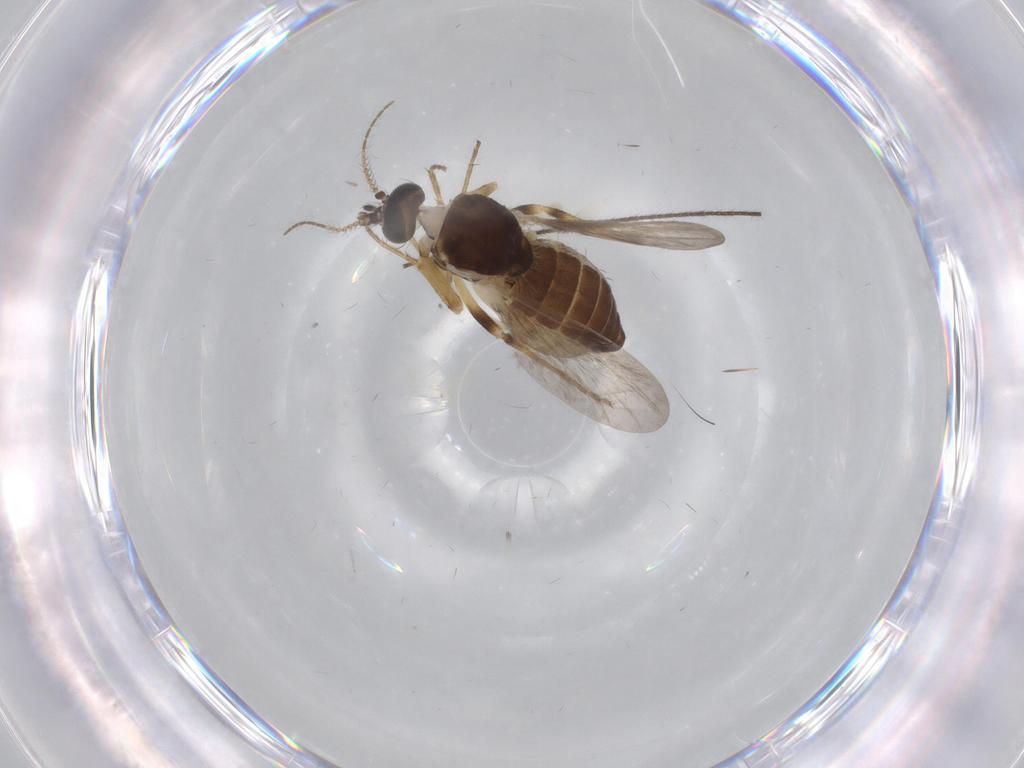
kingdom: Animalia
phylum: Arthropoda
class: Insecta
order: Diptera
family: Ceratopogonidae
